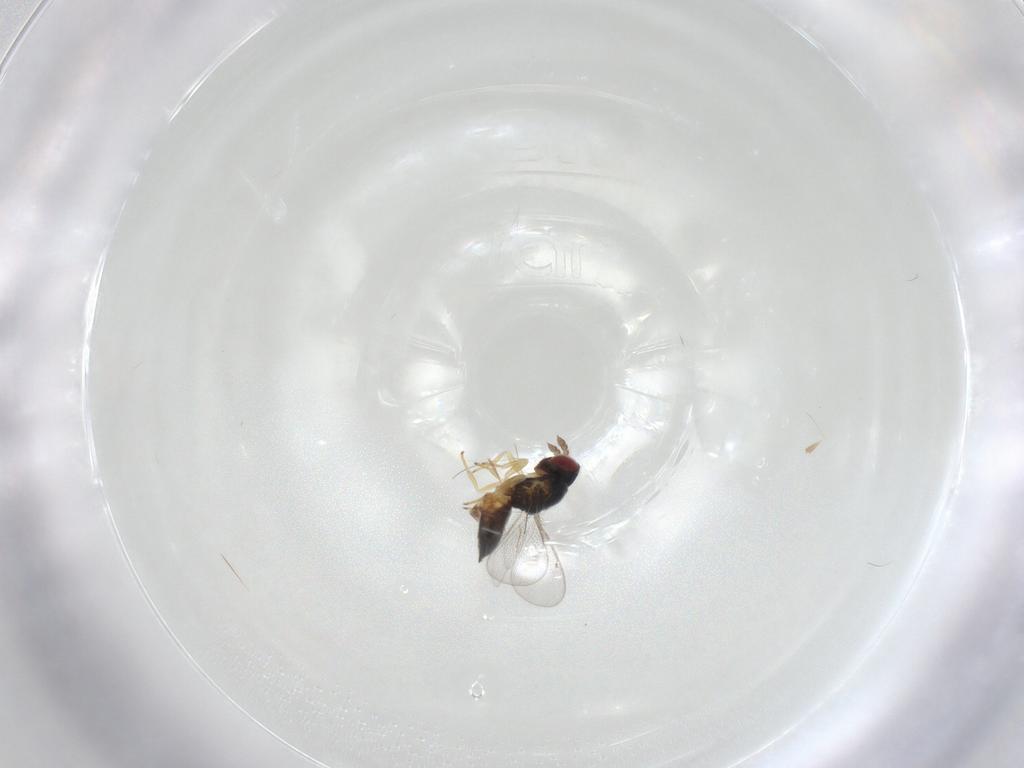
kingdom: Animalia
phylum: Arthropoda
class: Insecta
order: Hymenoptera
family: Eulophidae
